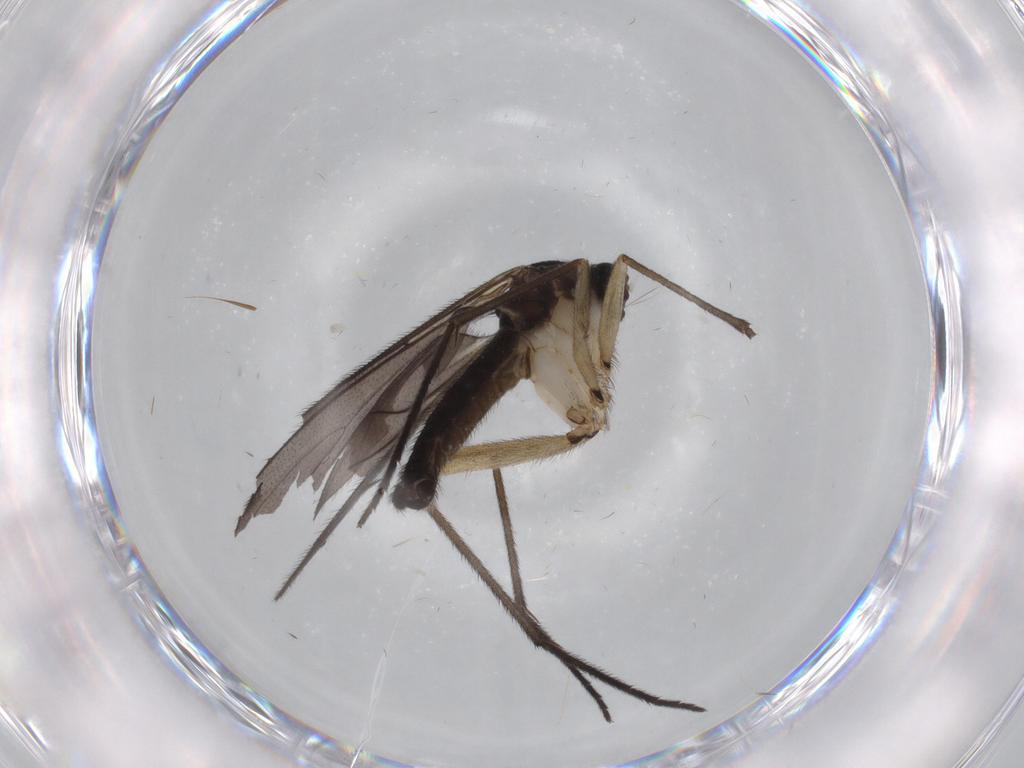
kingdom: Animalia
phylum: Arthropoda
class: Insecta
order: Diptera
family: Sciaridae
